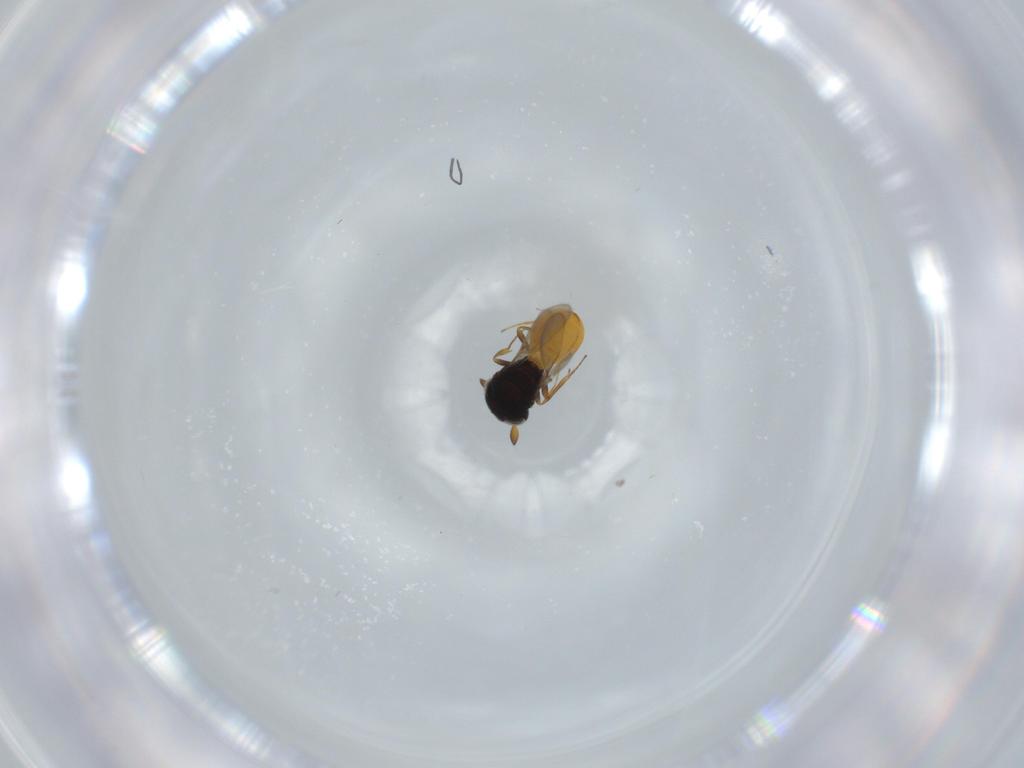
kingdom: Animalia
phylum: Arthropoda
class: Insecta
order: Hymenoptera
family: Scelionidae
